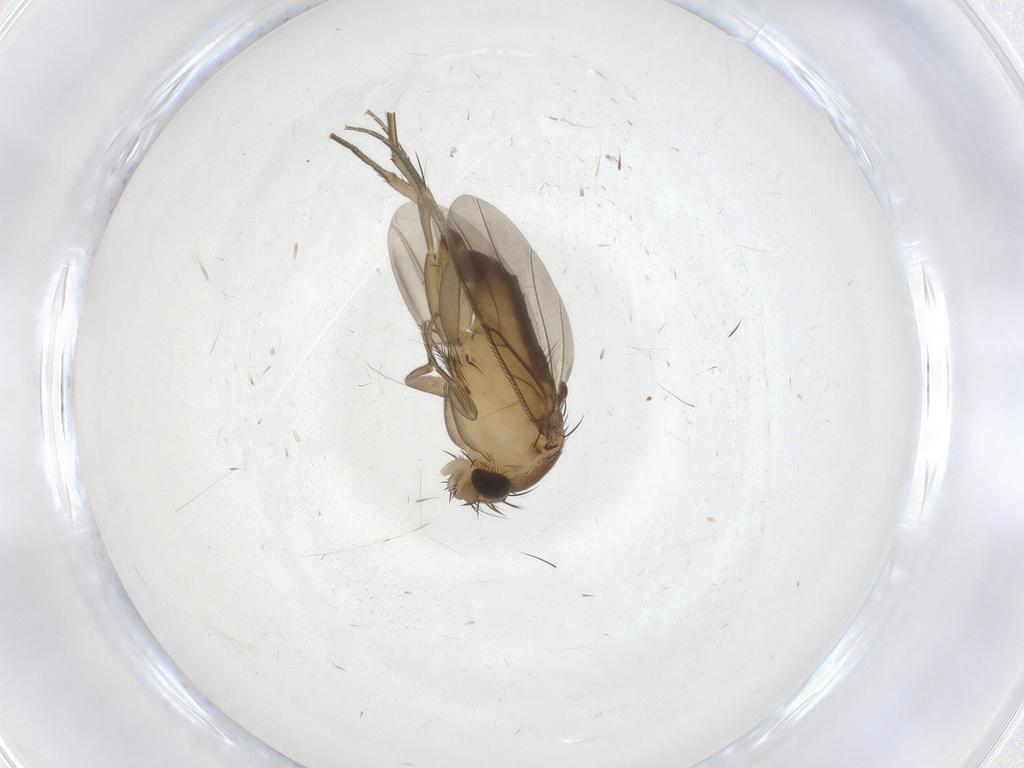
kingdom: Animalia
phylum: Arthropoda
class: Insecta
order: Diptera
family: Phoridae
